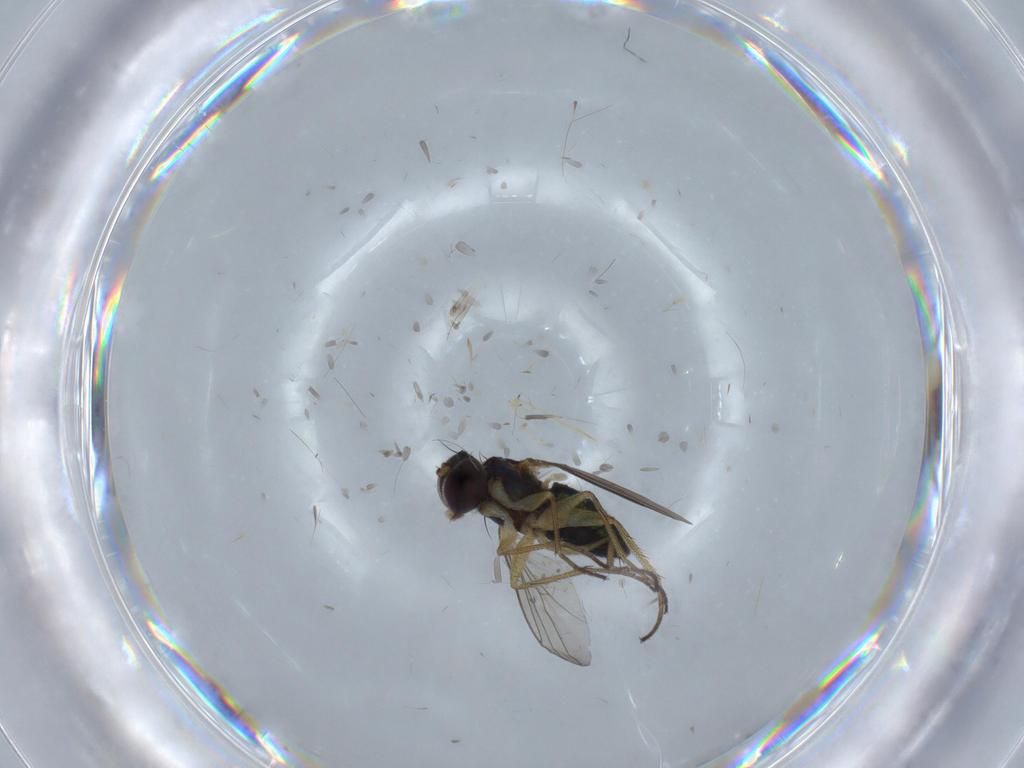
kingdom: Animalia
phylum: Arthropoda
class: Insecta
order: Diptera
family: Dolichopodidae
